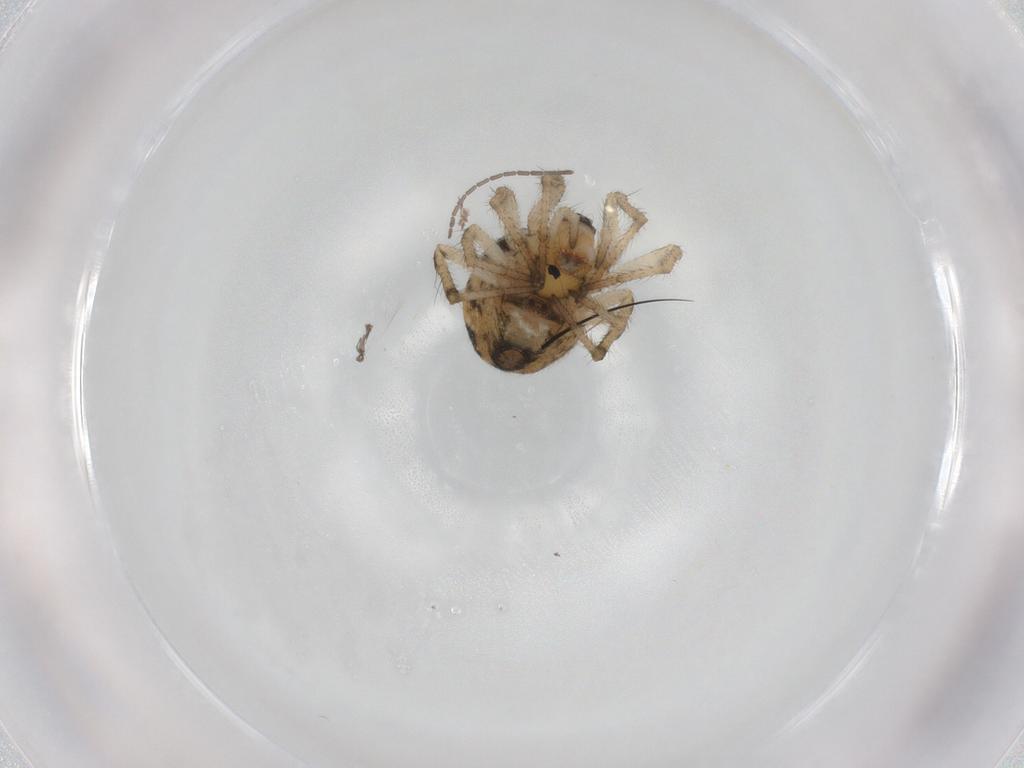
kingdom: Animalia
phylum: Arthropoda
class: Arachnida
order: Araneae
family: Theridiidae
